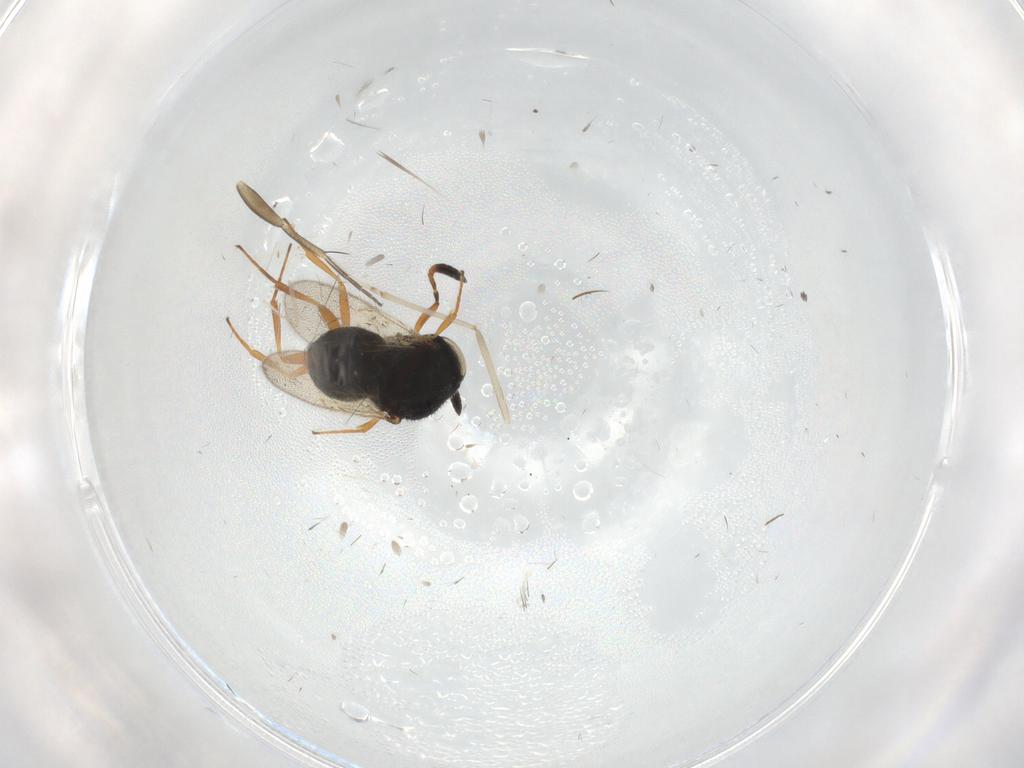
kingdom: Animalia
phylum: Arthropoda
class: Insecta
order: Hymenoptera
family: Scelionidae
